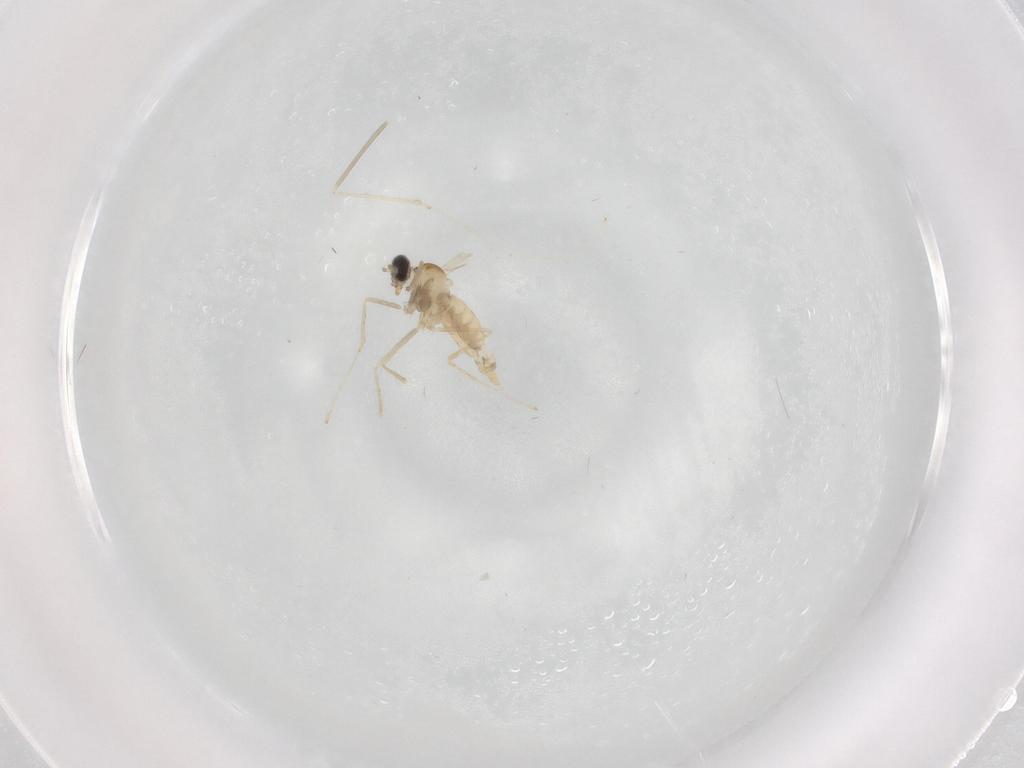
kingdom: Animalia
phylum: Arthropoda
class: Insecta
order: Diptera
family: Cecidomyiidae
